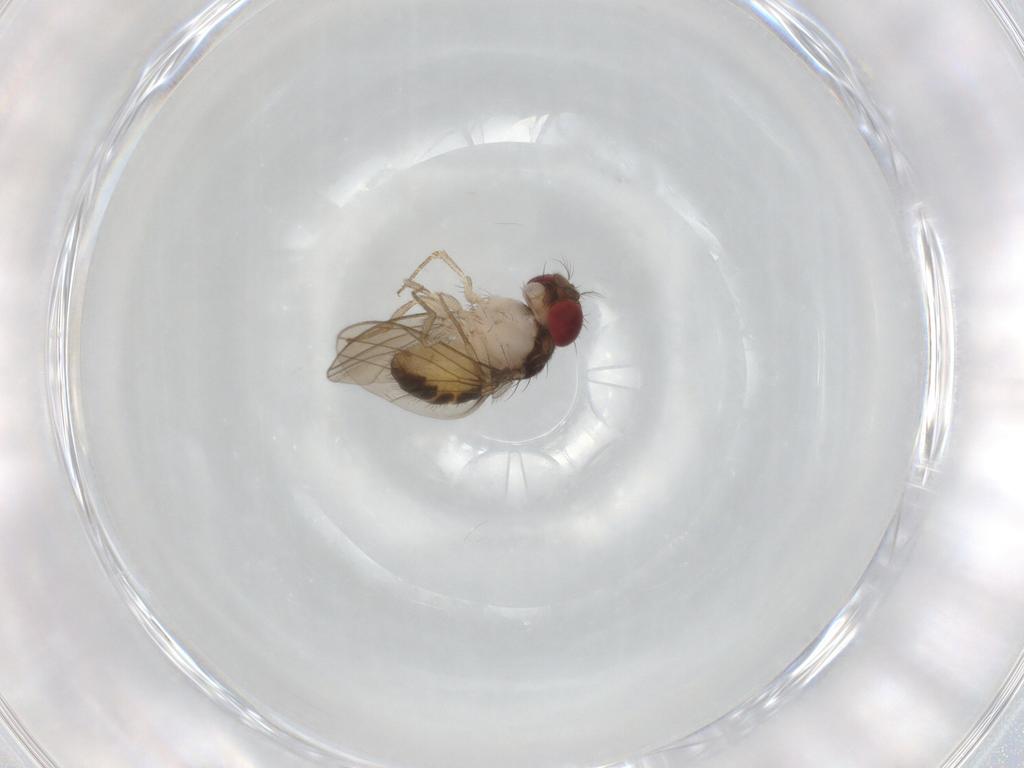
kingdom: Animalia
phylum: Arthropoda
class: Insecta
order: Diptera
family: Drosophilidae
